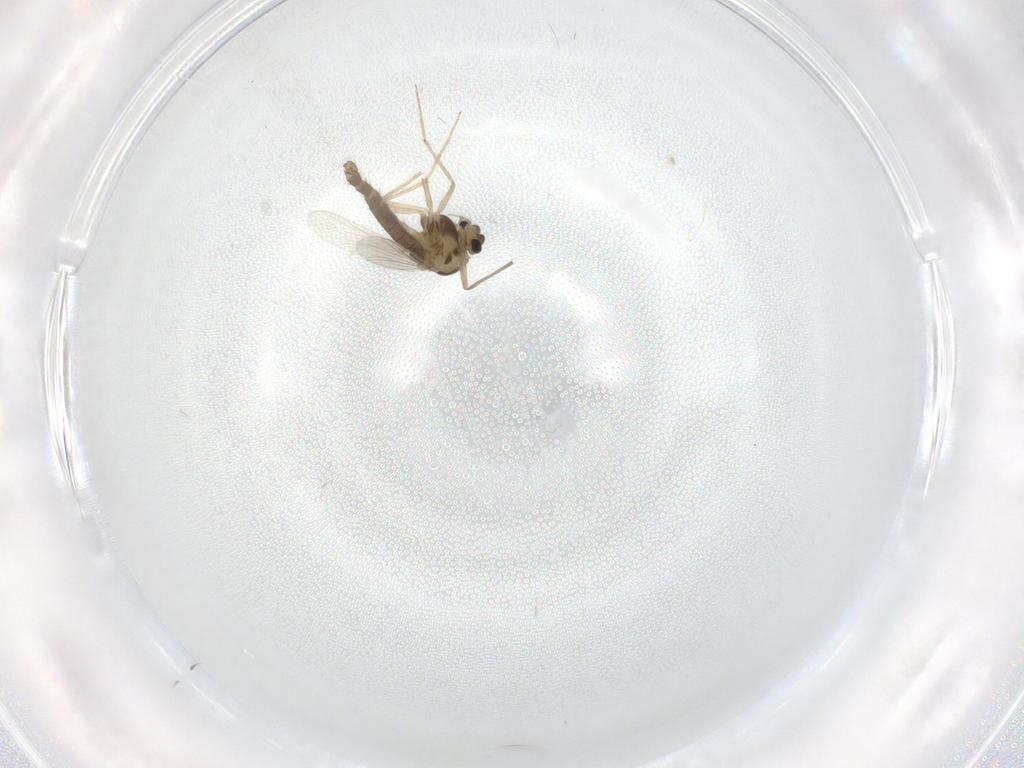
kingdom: Animalia
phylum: Arthropoda
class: Insecta
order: Diptera
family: Chironomidae
